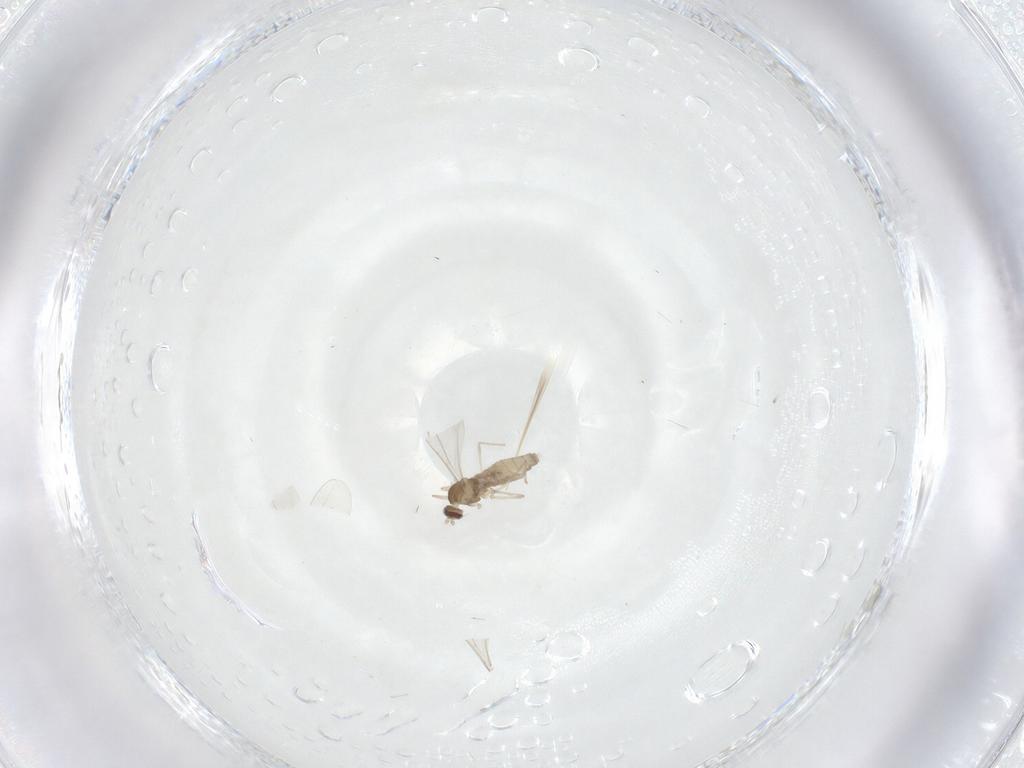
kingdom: Animalia
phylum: Arthropoda
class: Insecta
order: Diptera
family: Cecidomyiidae
